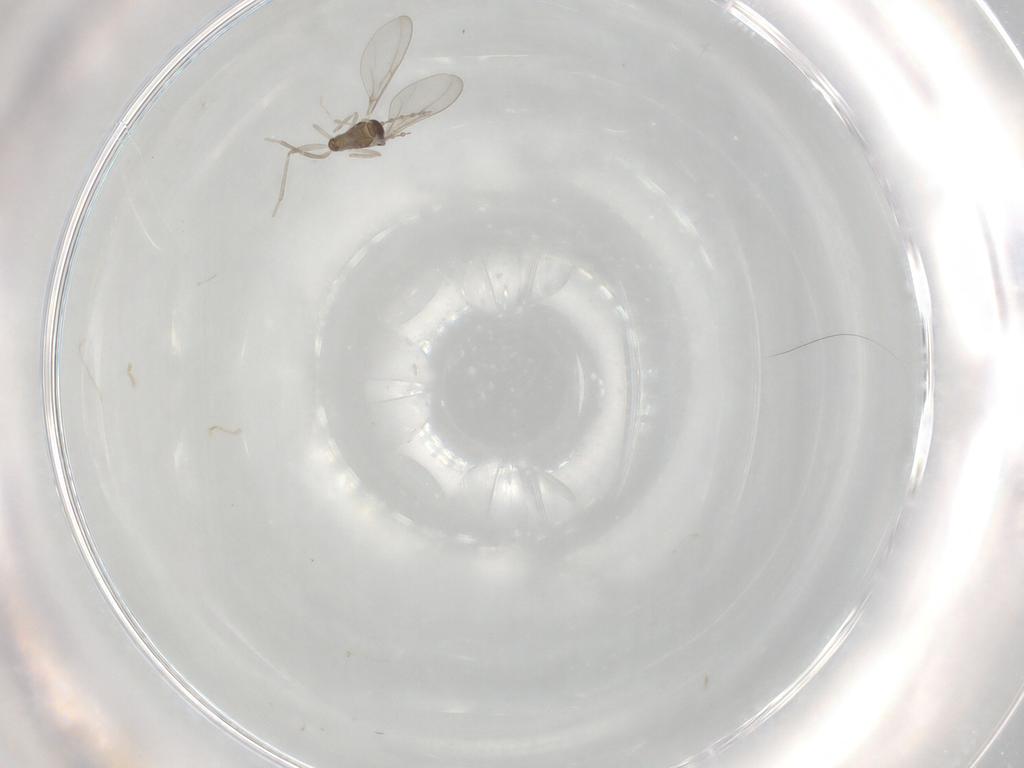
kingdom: Animalia
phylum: Arthropoda
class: Insecta
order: Diptera
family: Cecidomyiidae
